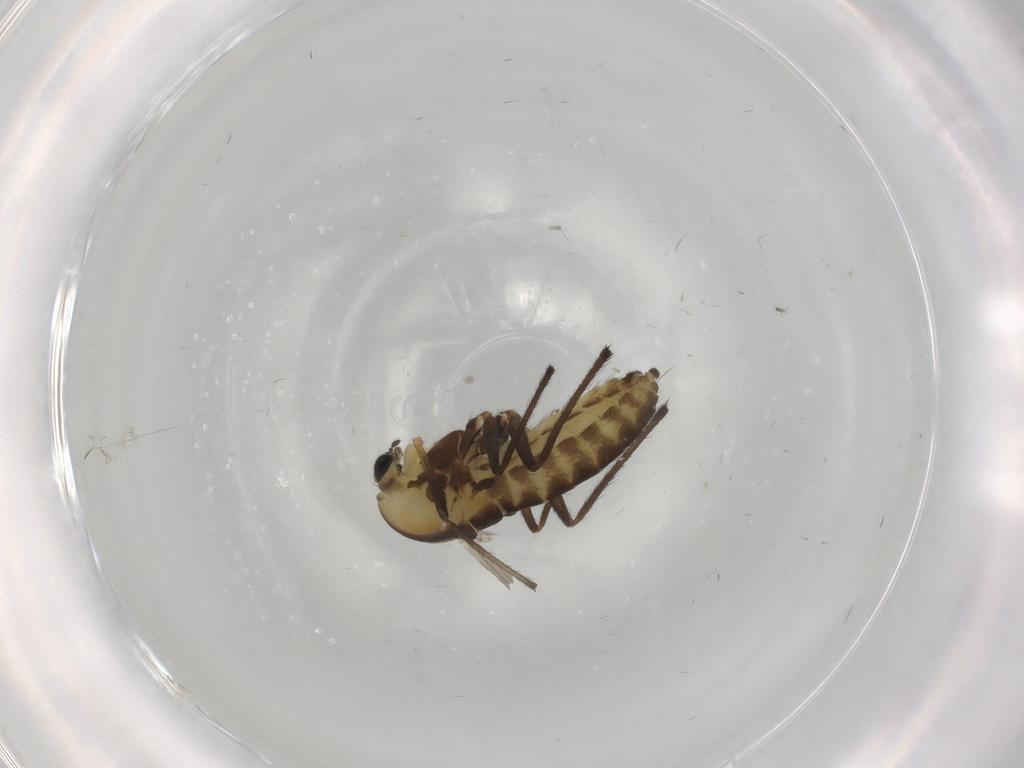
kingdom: Animalia
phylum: Arthropoda
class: Insecta
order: Diptera
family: Chironomidae
